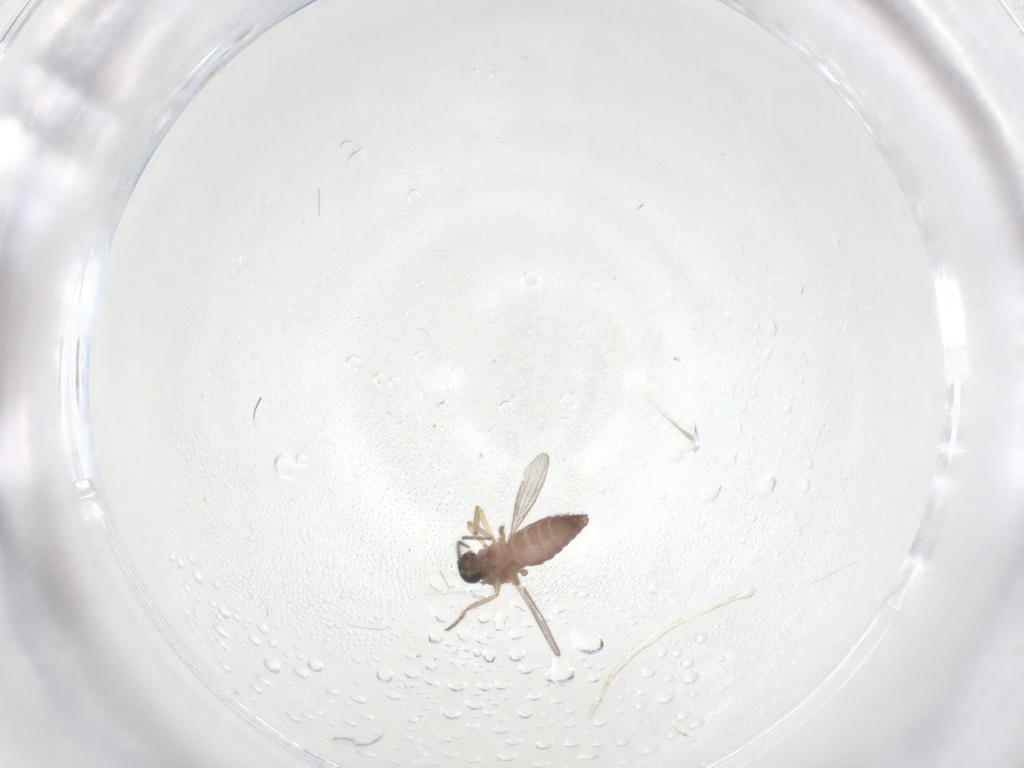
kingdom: Animalia
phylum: Arthropoda
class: Insecta
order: Diptera
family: Ceratopogonidae
